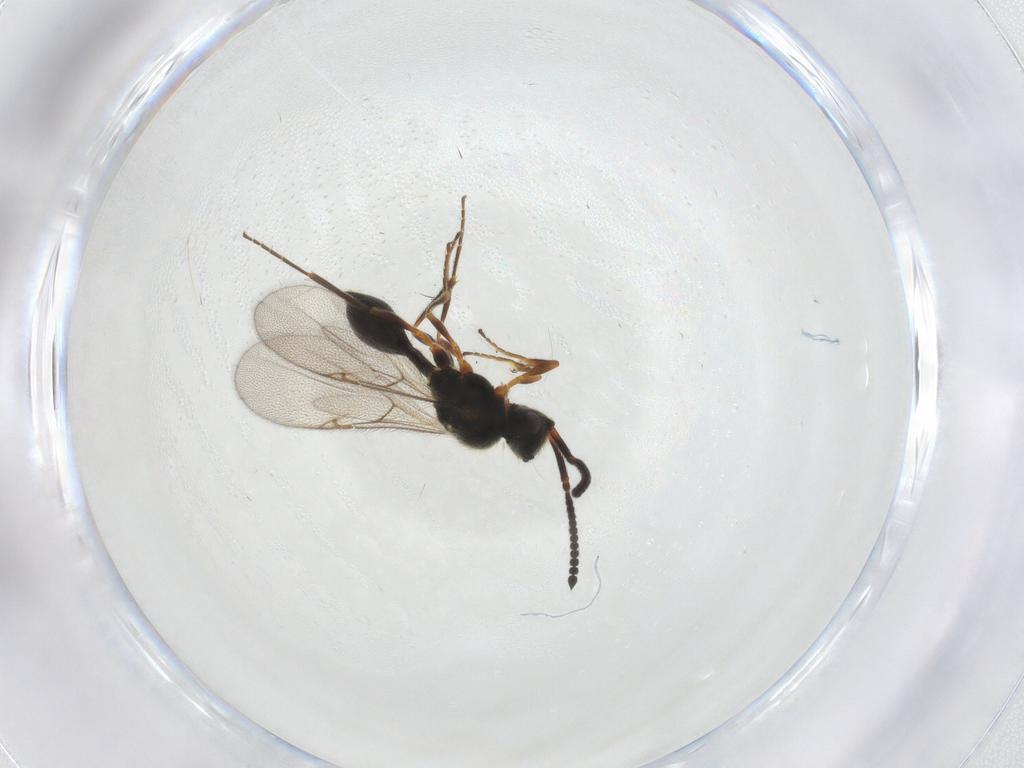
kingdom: Animalia
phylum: Arthropoda
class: Insecta
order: Hymenoptera
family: Diapriidae
